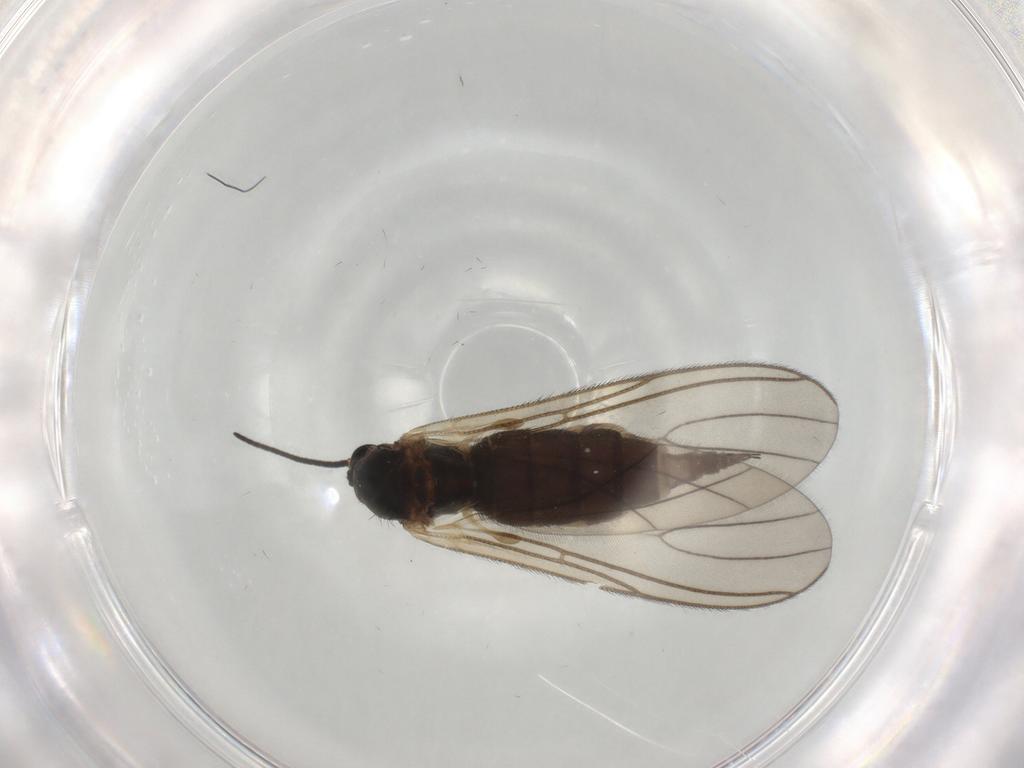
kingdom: Animalia
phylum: Arthropoda
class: Insecta
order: Diptera
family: Sciaridae
